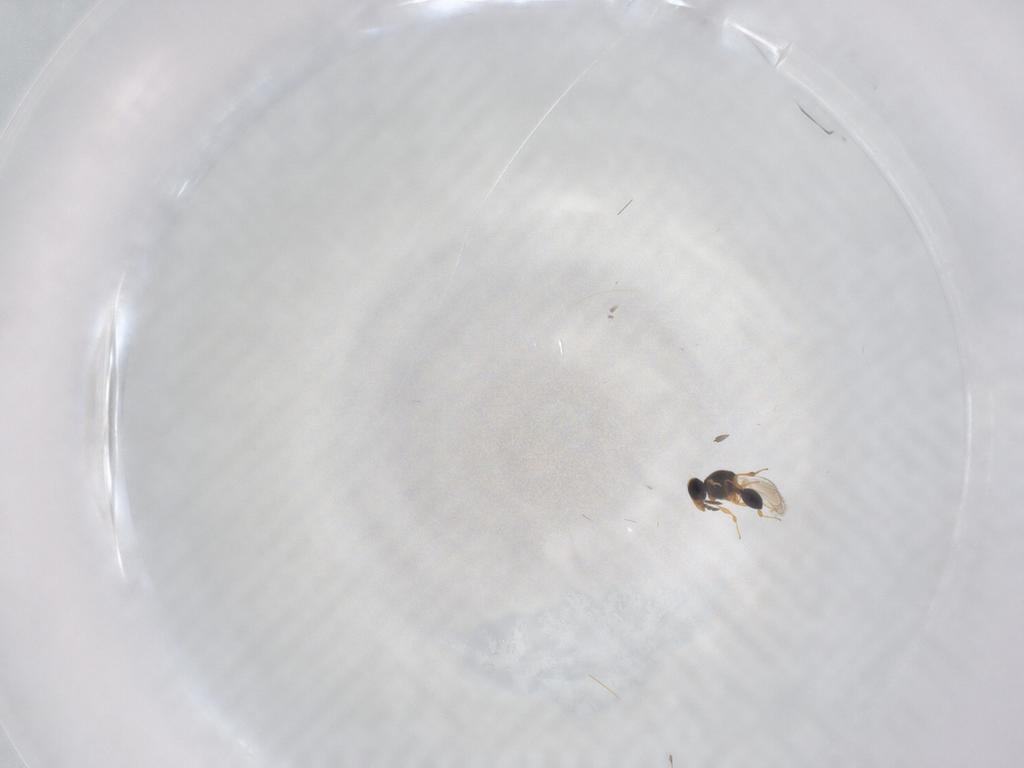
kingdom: Animalia
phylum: Arthropoda
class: Insecta
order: Hymenoptera
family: Platygastridae
